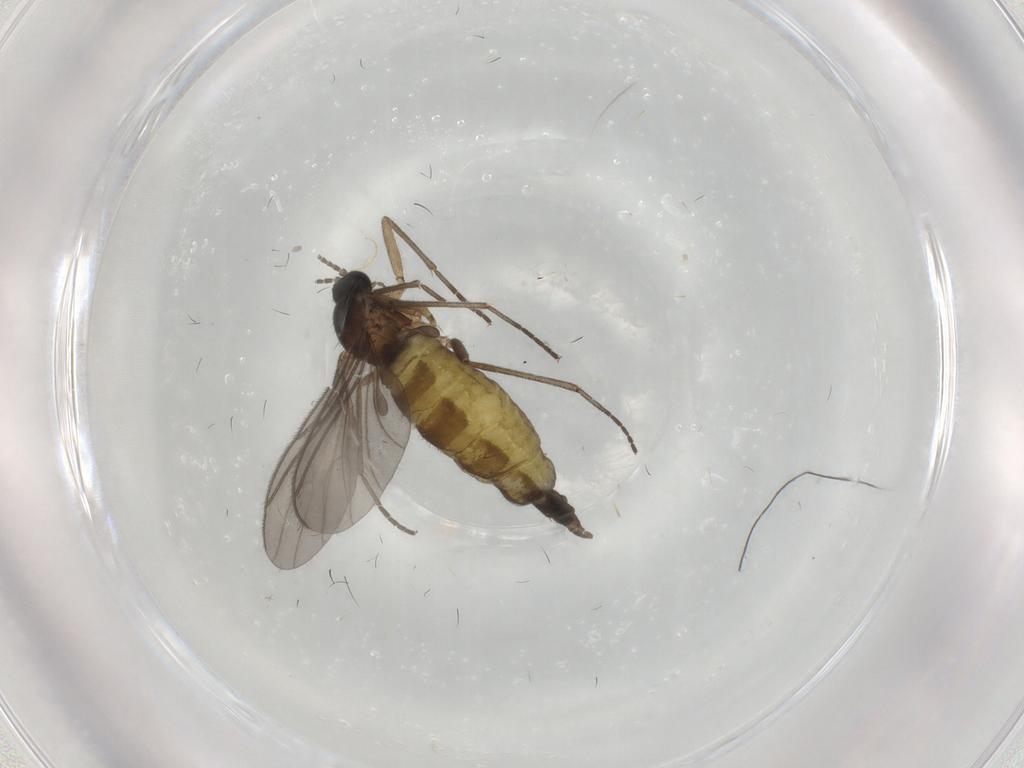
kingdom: Animalia
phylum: Arthropoda
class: Insecta
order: Diptera
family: Sciaridae
